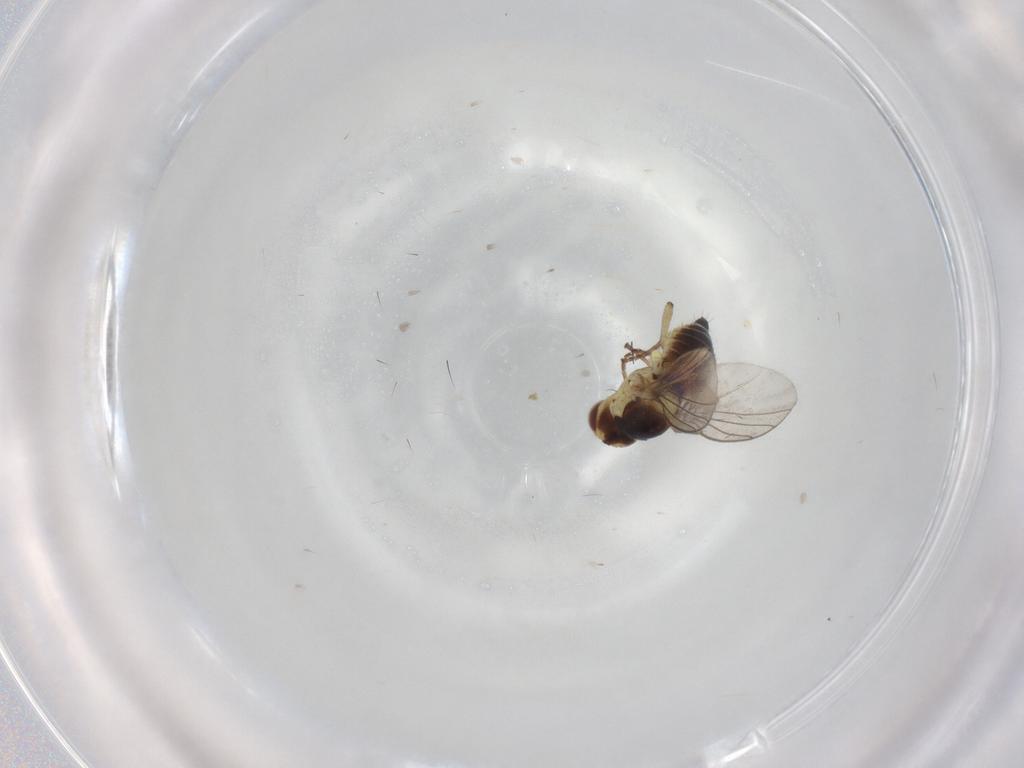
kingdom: Animalia
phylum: Arthropoda
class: Insecta
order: Diptera
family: Agromyzidae
